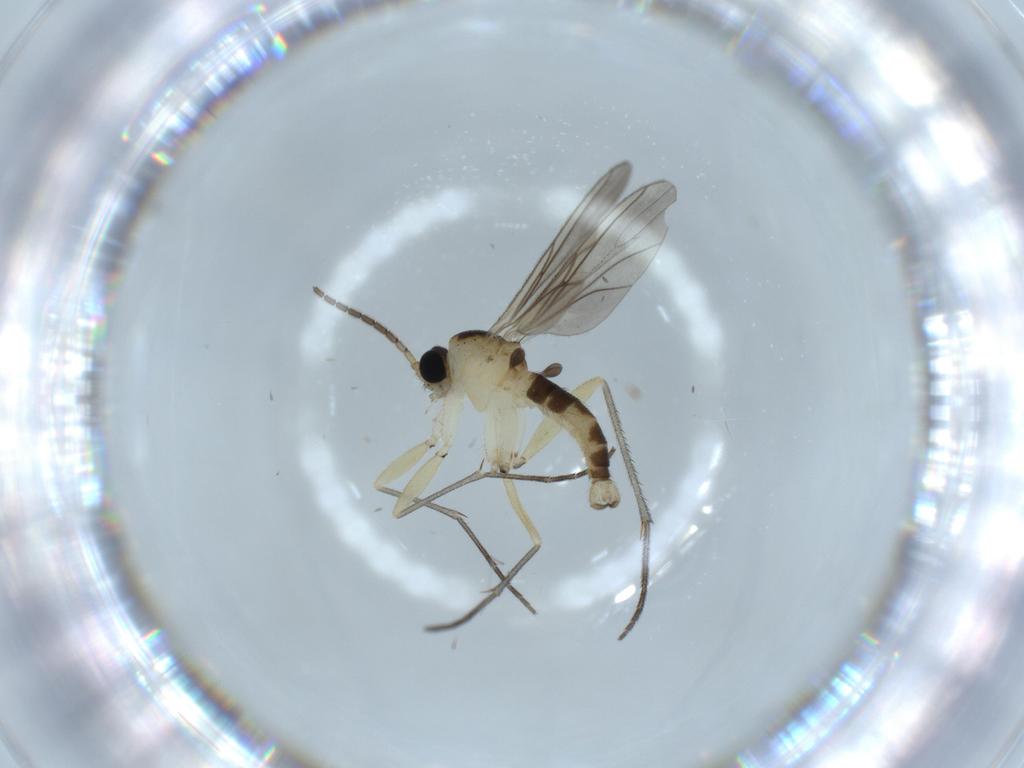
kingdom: Animalia
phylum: Arthropoda
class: Insecta
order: Diptera
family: Sciaridae
